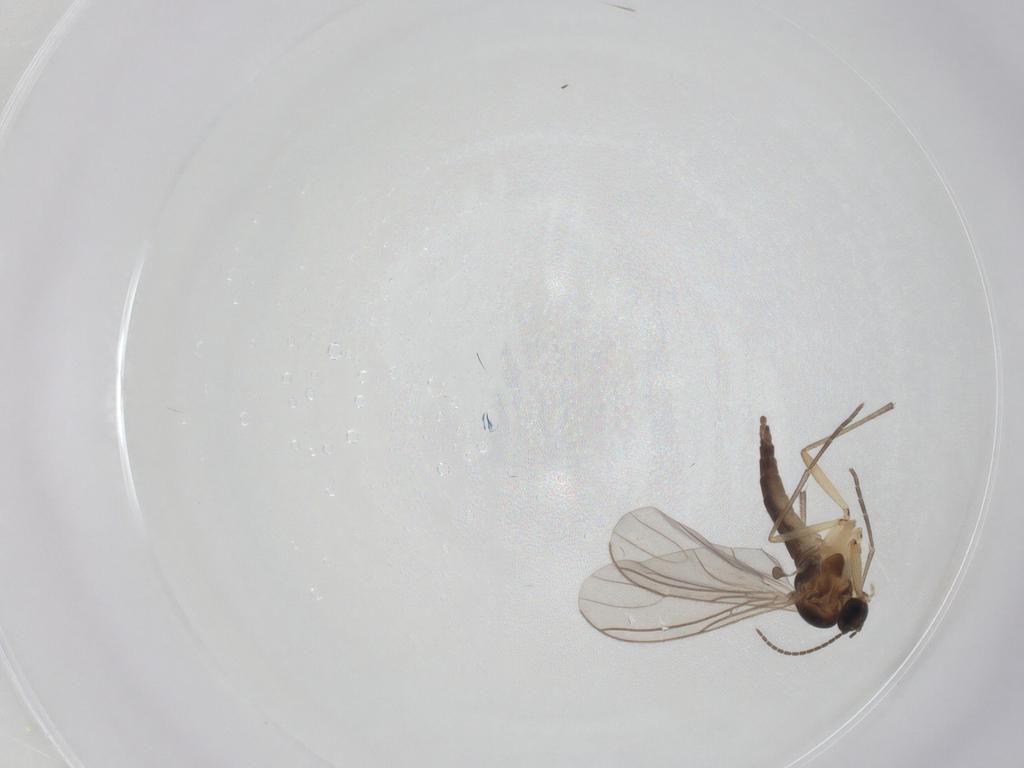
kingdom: Animalia
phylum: Arthropoda
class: Insecta
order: Diptera
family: Sciaridae
